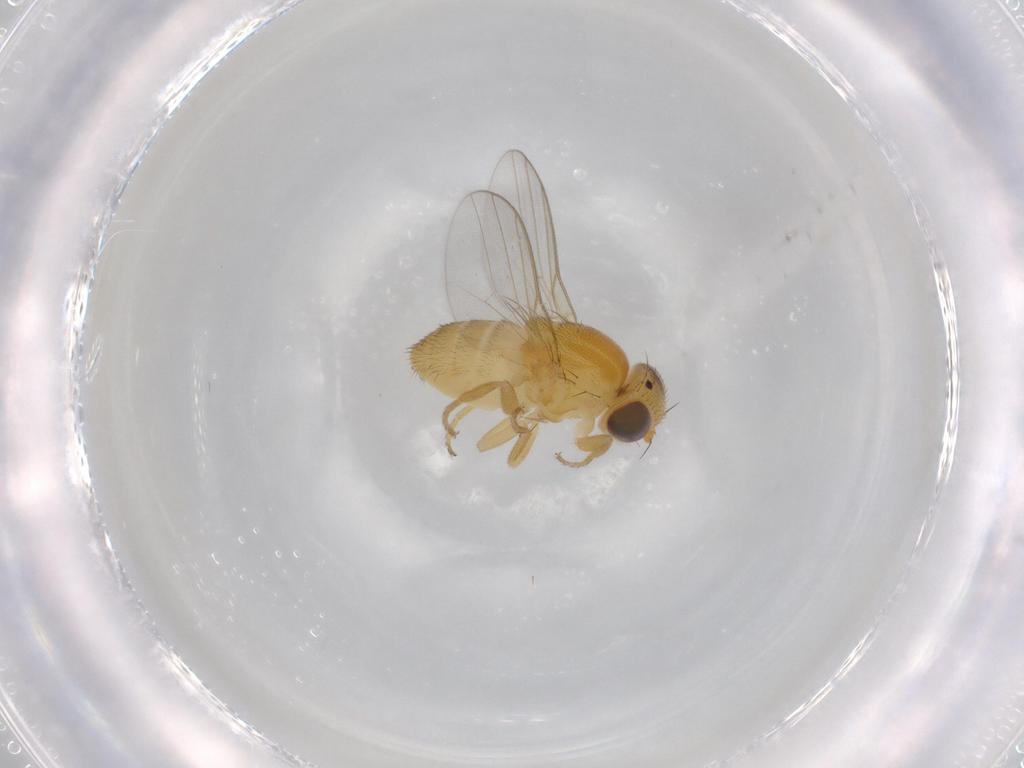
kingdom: Animalia
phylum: Arthropoda
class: Insecta
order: Diptera
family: Chloropidae
